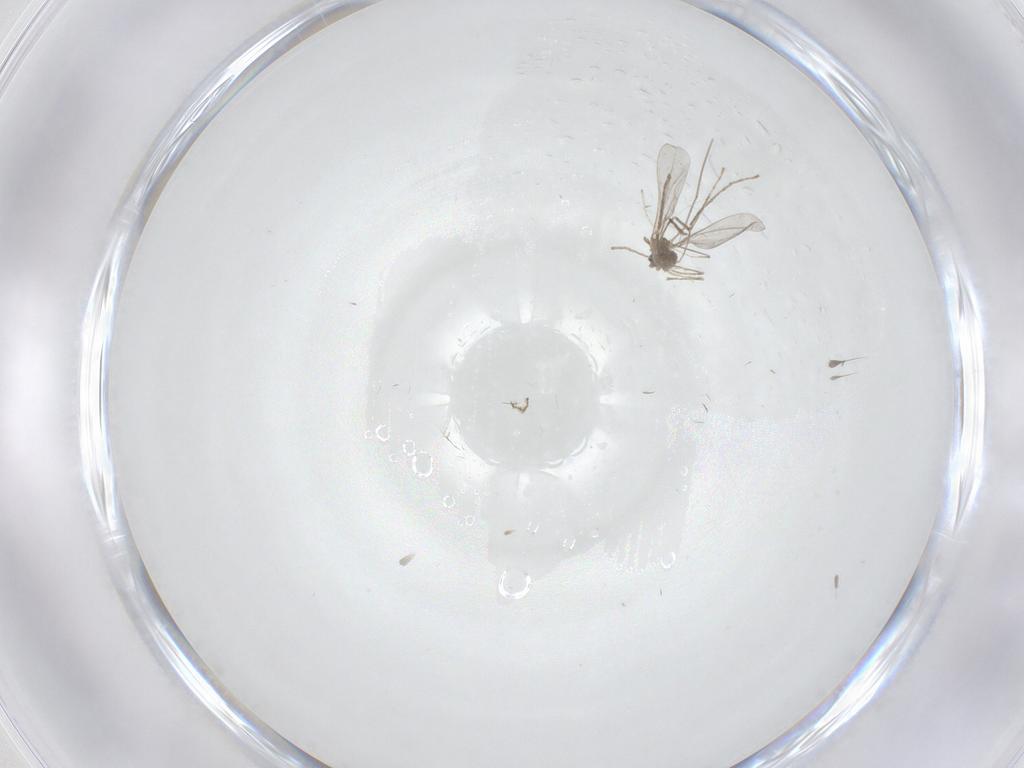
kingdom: Animalia
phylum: Arthropoda
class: Insecta
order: Diptera
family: Cecidomyiidae
